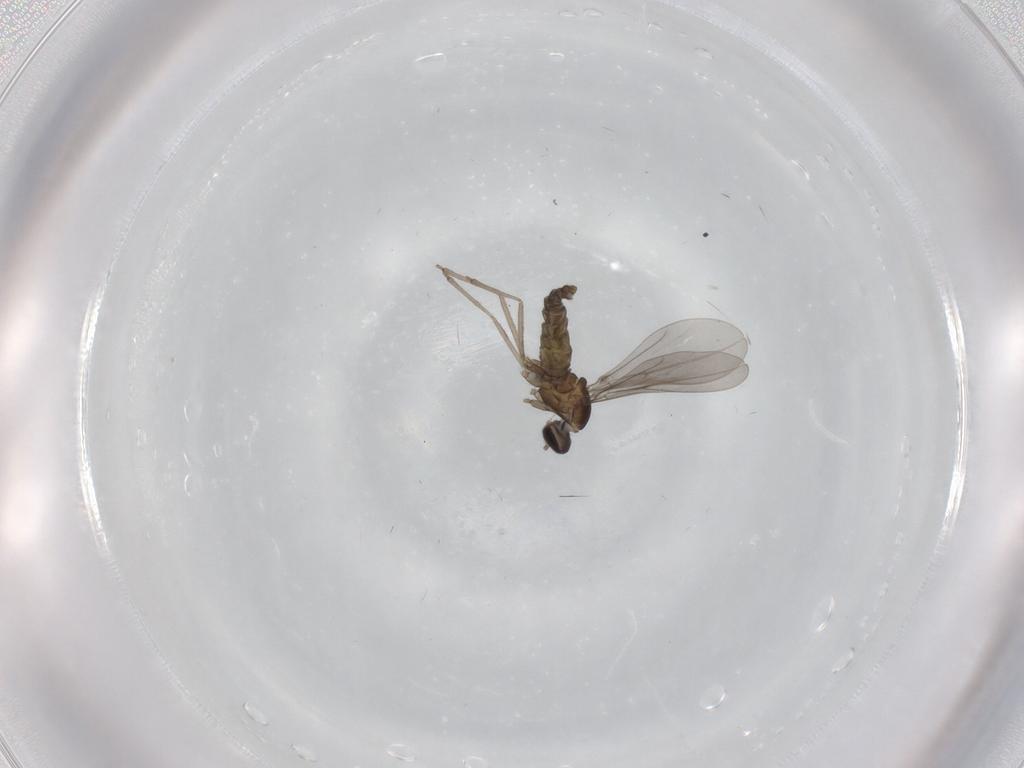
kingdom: Animalia
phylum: Arthropoda
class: Insecta
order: Diptera
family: Cecidomyiidae
